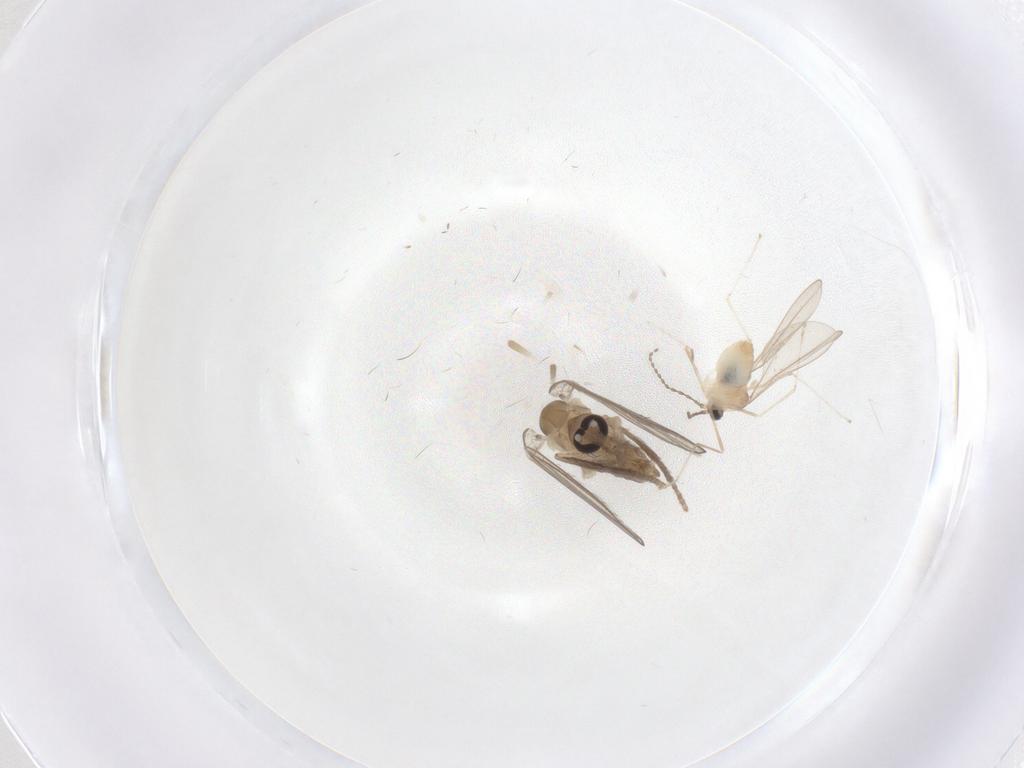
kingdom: Animalia
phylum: Arthropoda
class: Insecta
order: Diptera
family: Psychodidae
